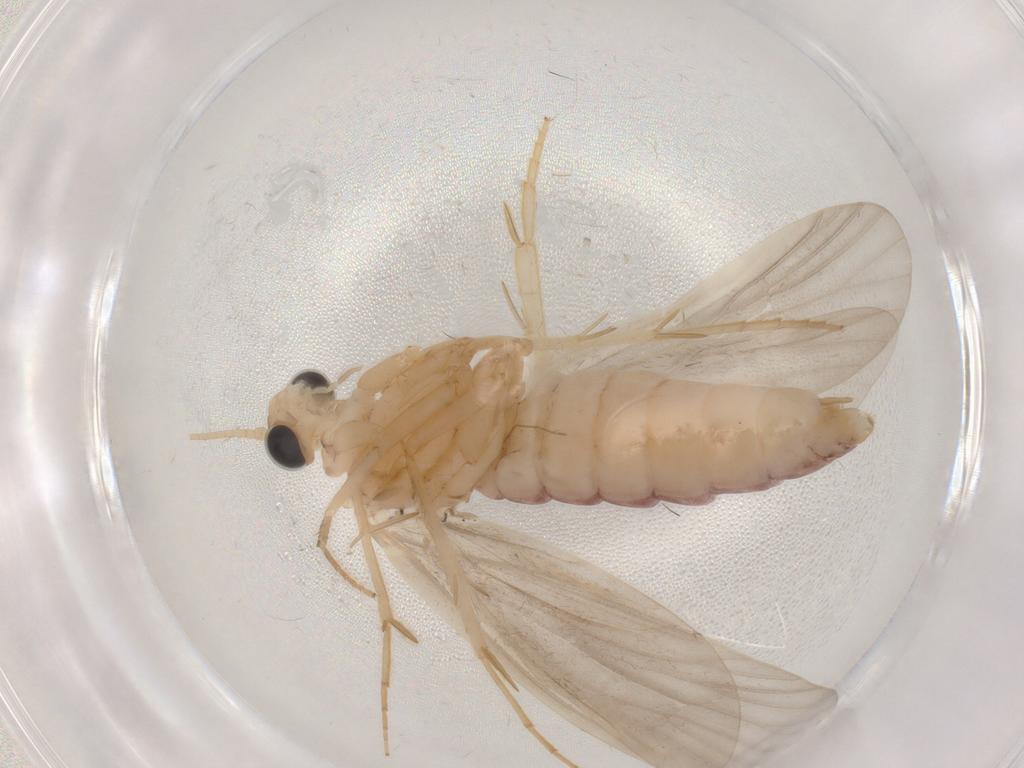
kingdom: Animalia
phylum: Arthropoda
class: Insecta
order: Trichoptera
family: Ecnomidae
